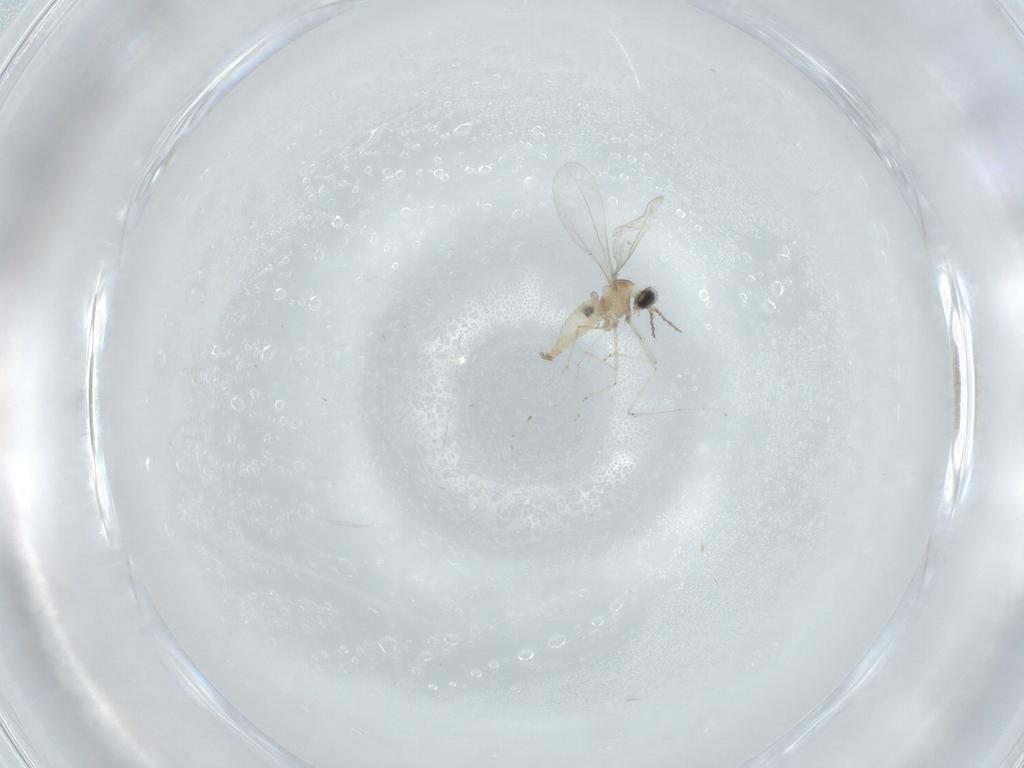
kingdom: Animalia
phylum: Arthropoda
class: Insecta
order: Diptera
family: Cecidomyiidae
